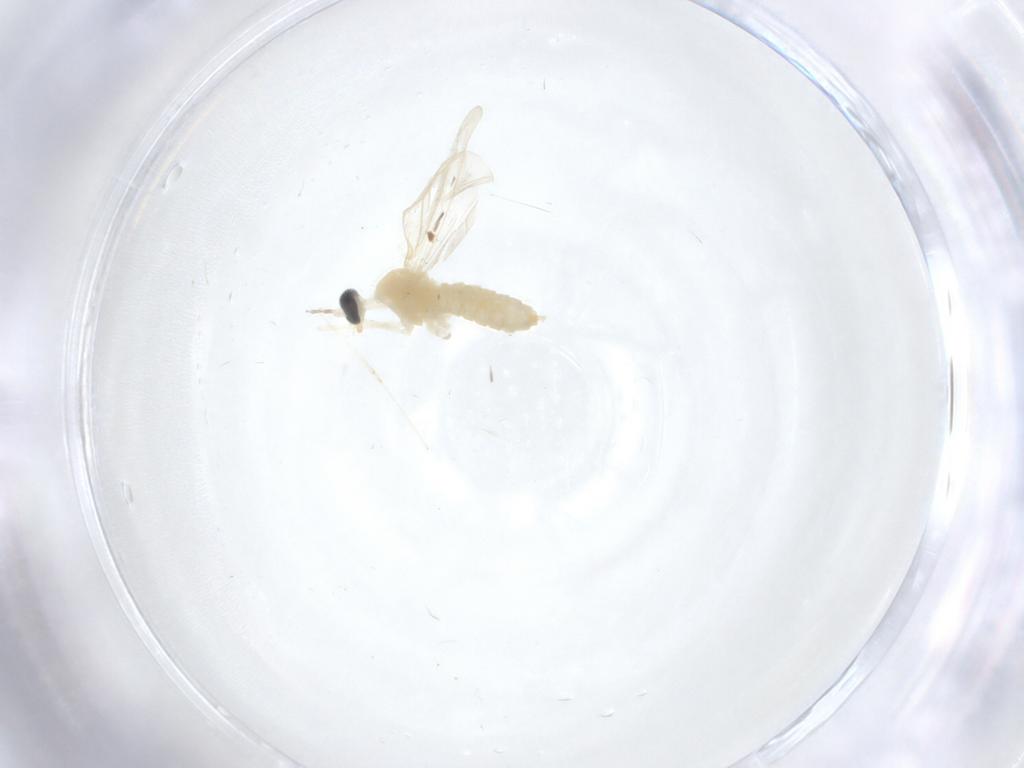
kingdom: Animalia
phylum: Arthropoda
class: Insecta
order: Diptera
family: Cecidomyiidae
